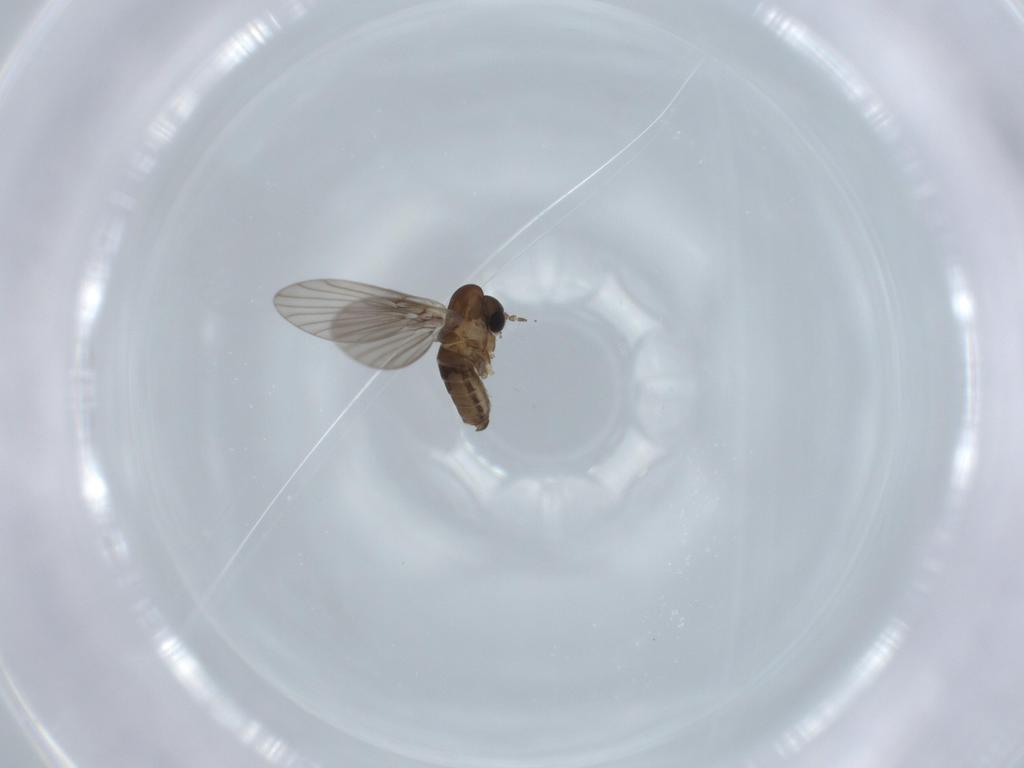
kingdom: Animalia
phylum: Arthropoda
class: Insecta
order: Diptera
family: Psychodidae
